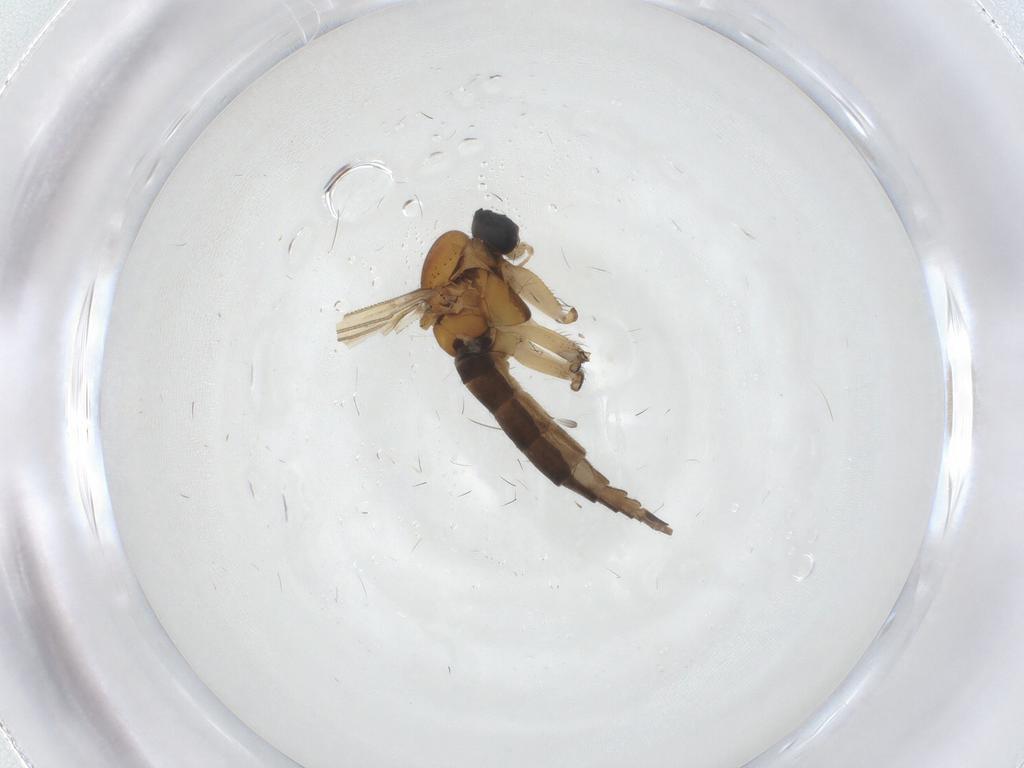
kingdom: Animalia
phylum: Arthropoda
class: Insecta
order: Diptera
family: Sciaridae
